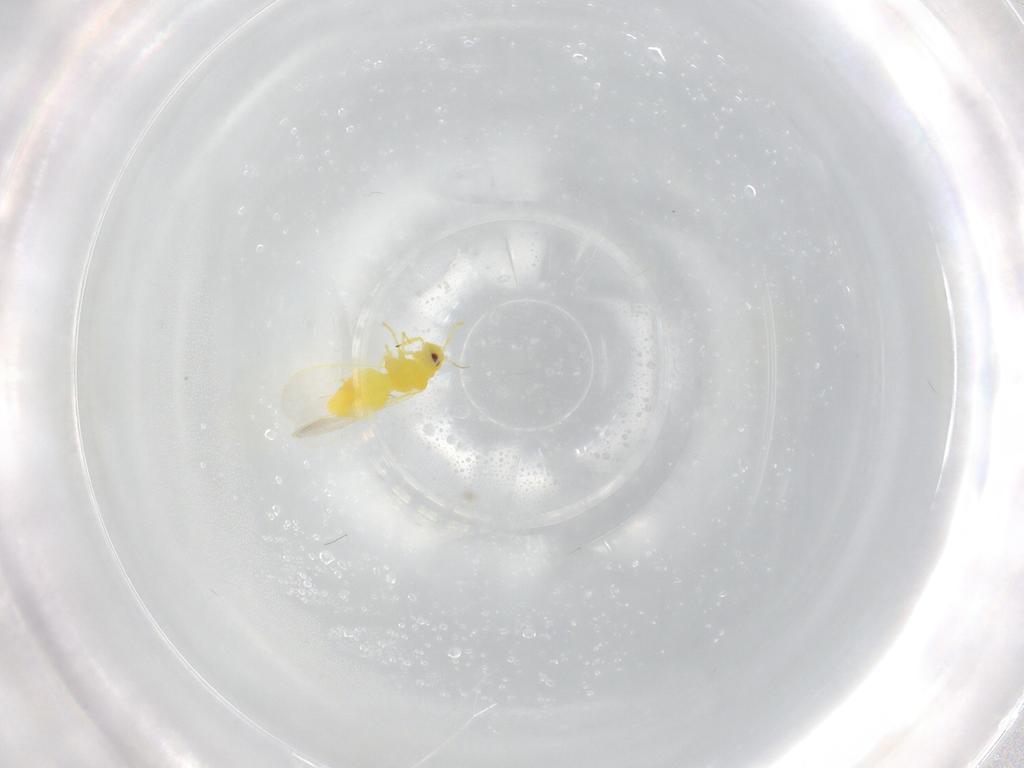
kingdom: Animalia
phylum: Arthropoda
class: Insecta
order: Hemiptera
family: Aleyrodidae
